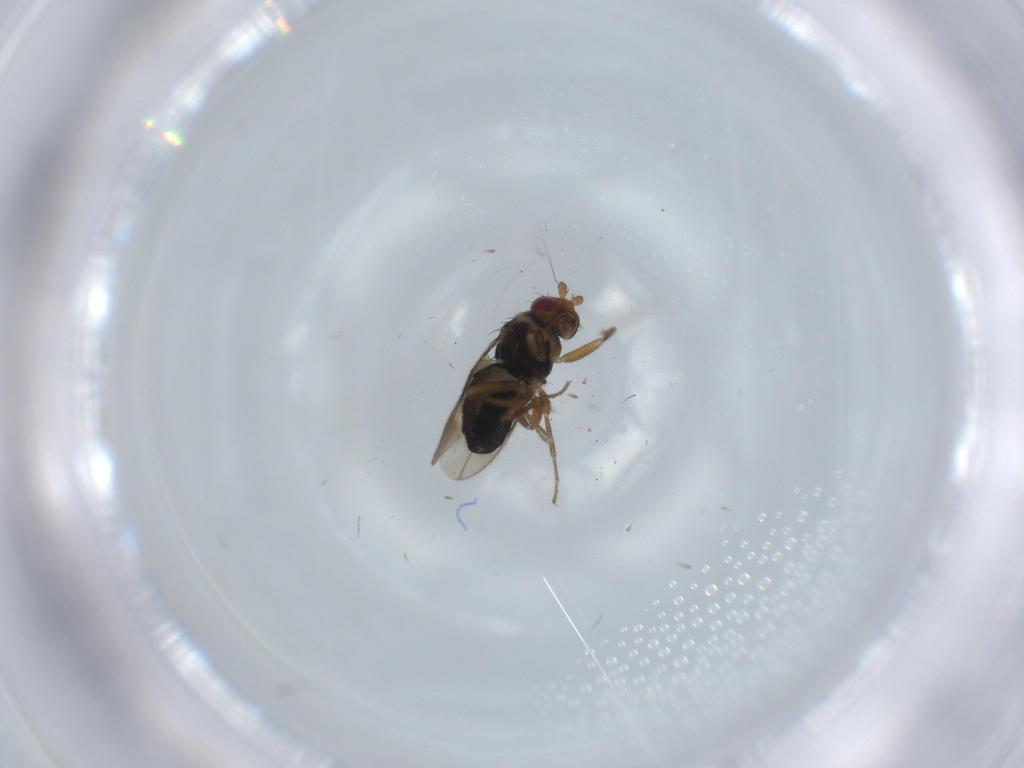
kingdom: Animalia
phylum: Arthropoda
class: Insecta
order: Diptera
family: Sphaeroceridae
